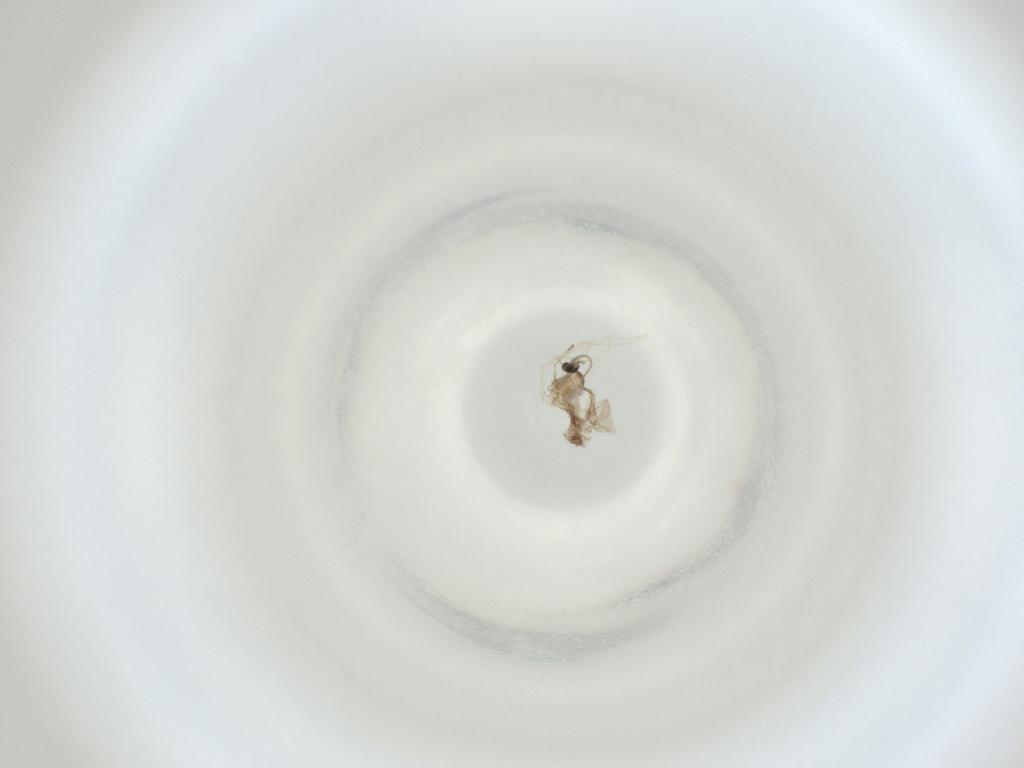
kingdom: Animalia
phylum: Arthropoda
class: Insecta
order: Diptera
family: Cecidomyiidae
